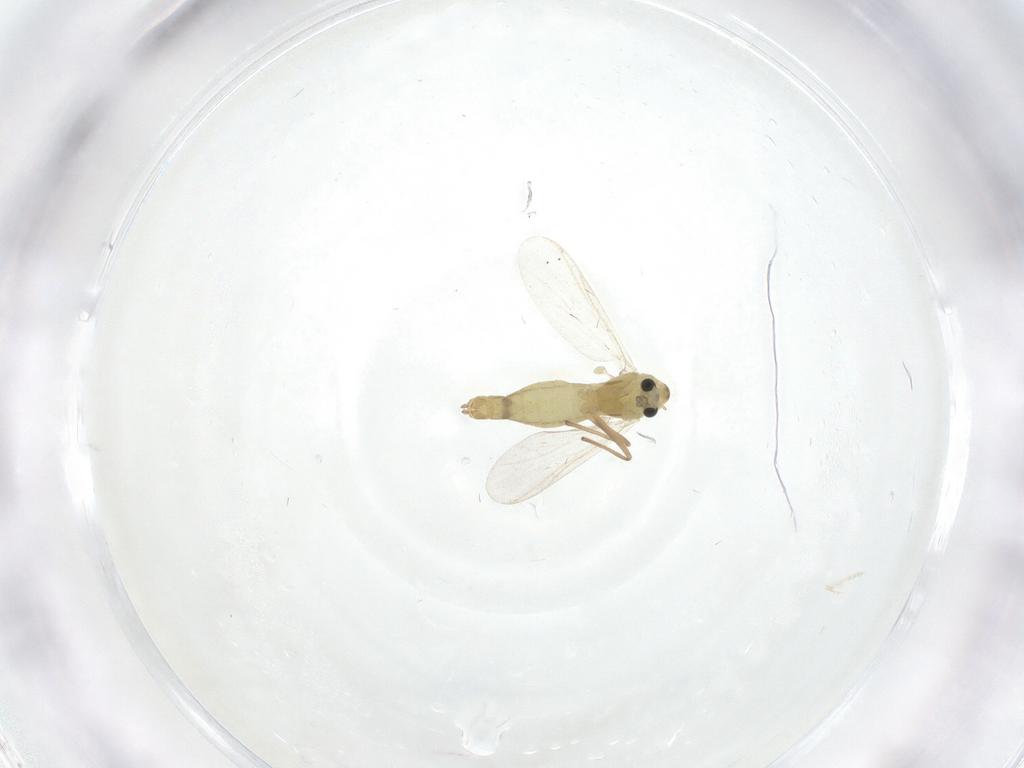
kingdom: Animalia
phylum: Arthropoda
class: Insecta
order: Diptera
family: Chironomidae
